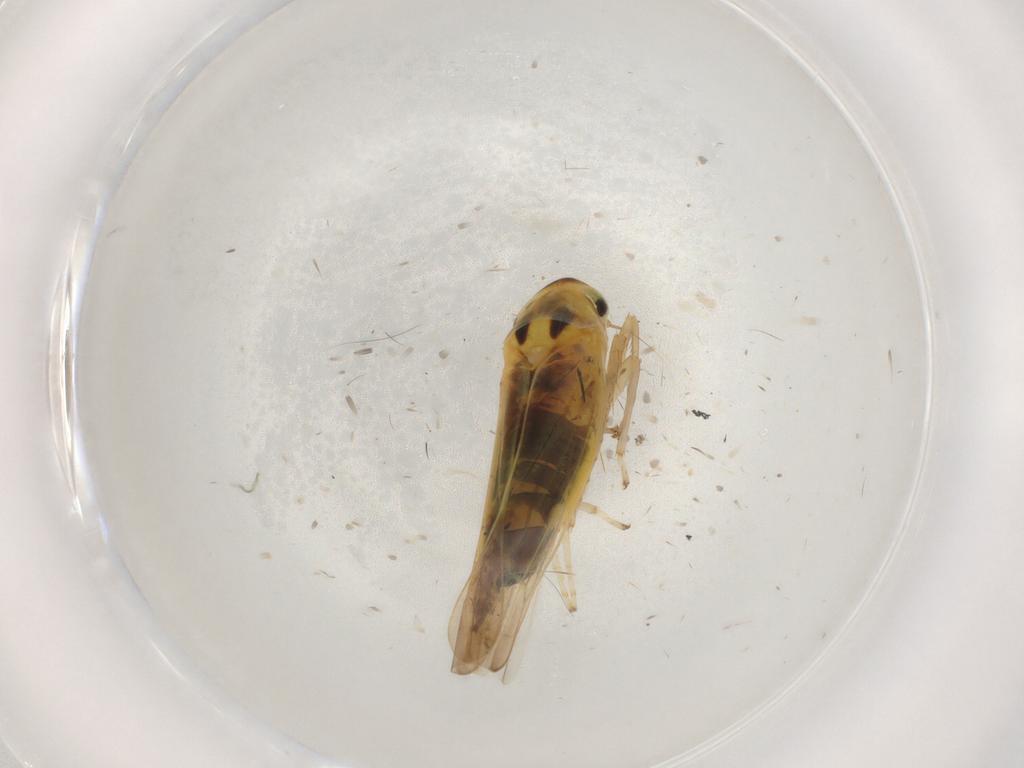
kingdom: Animalia
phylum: Arthropoda
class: Insecta
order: Hemiptera
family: Cicadellidae
